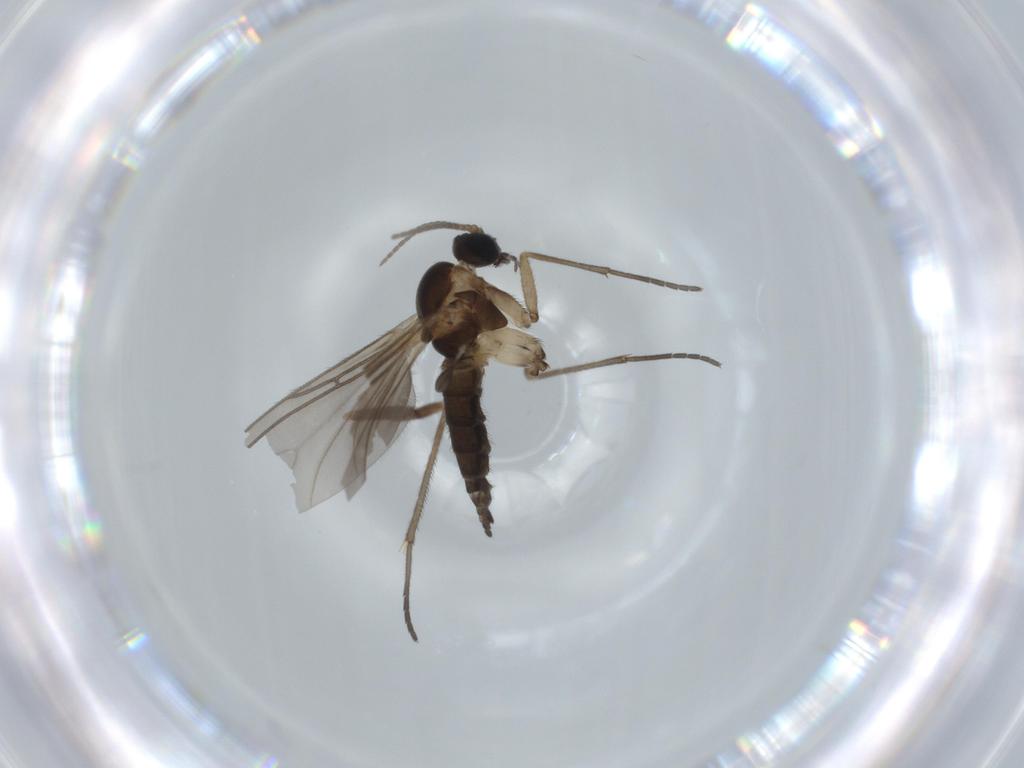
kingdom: Animalia
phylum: Arthropoda
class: Insecta
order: Diptera
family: Sciaridae
